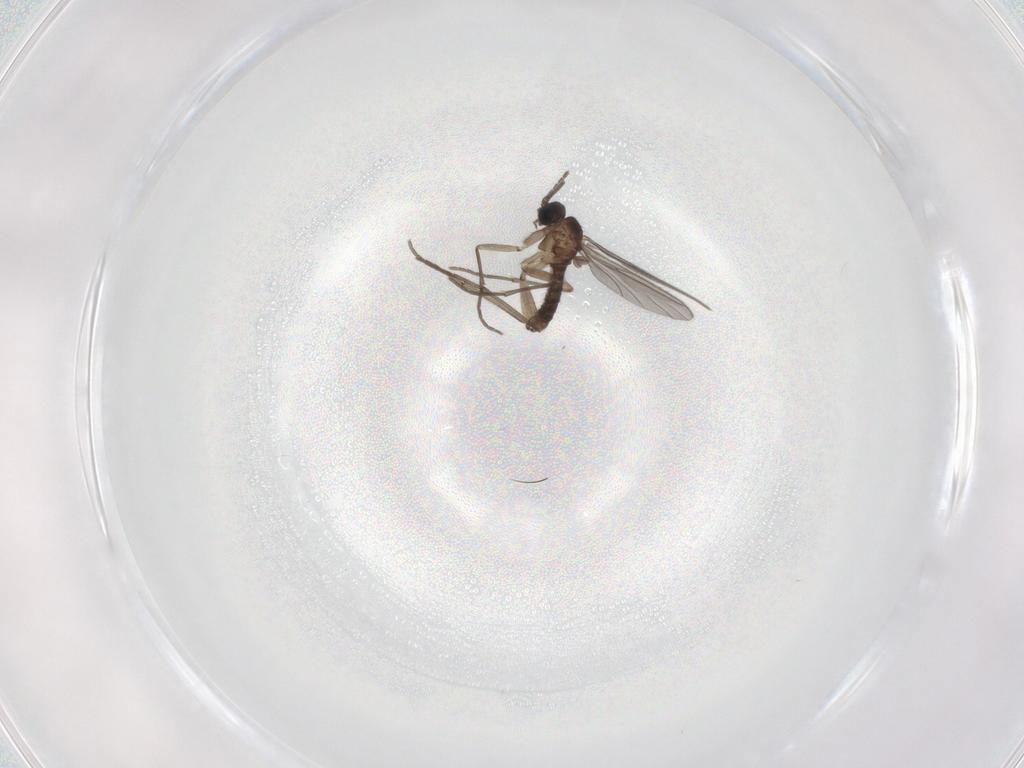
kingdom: Animalia
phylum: Arthropoda
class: Insecta
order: Diptera
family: Sciaridae
